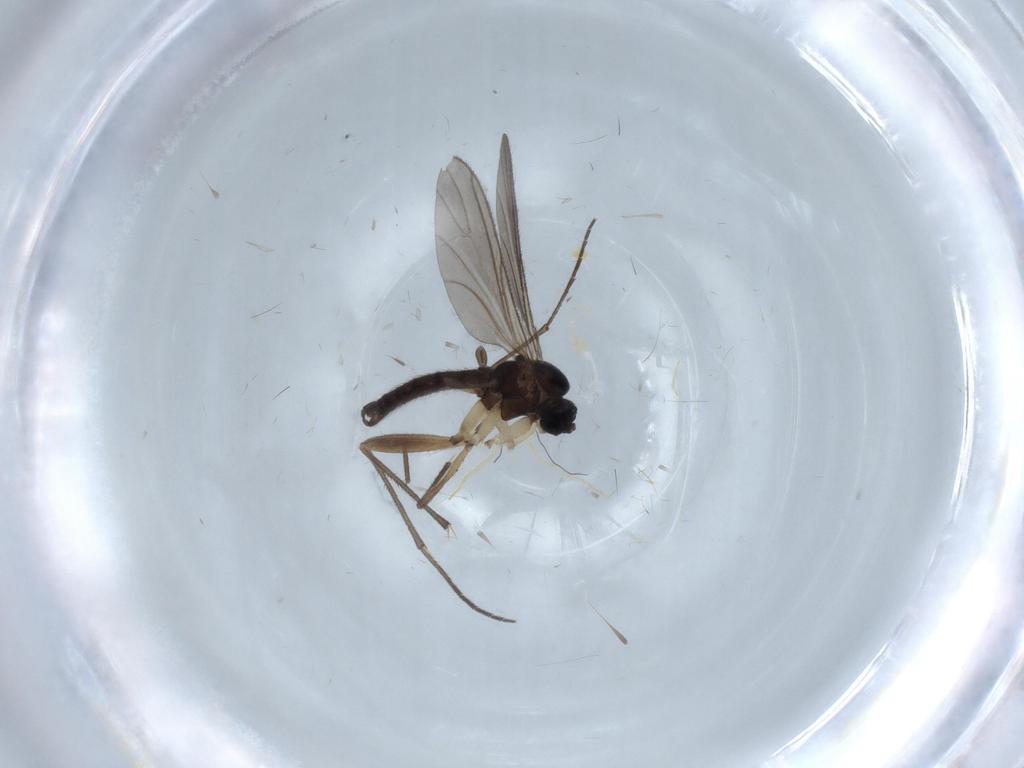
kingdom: Animalia
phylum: Arthropoda
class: Insecta
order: Diptera
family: Sciaridae
